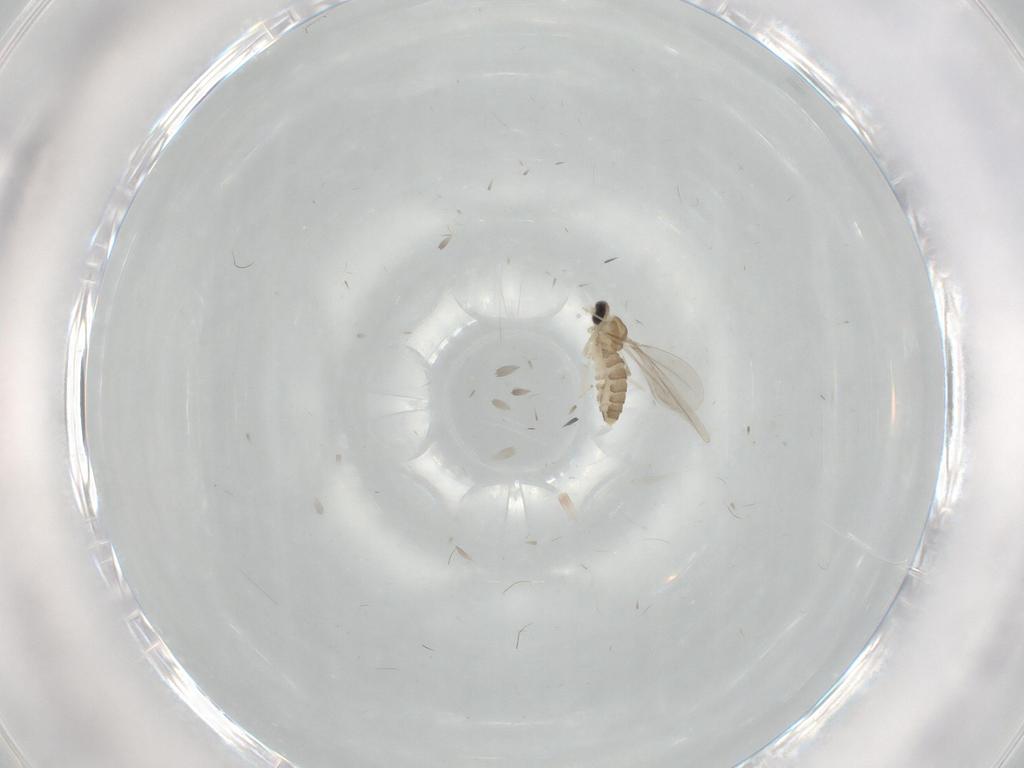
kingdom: Animalia
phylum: Arthropoda
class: Insecta
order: Diptera
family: Cecidomyiidae
